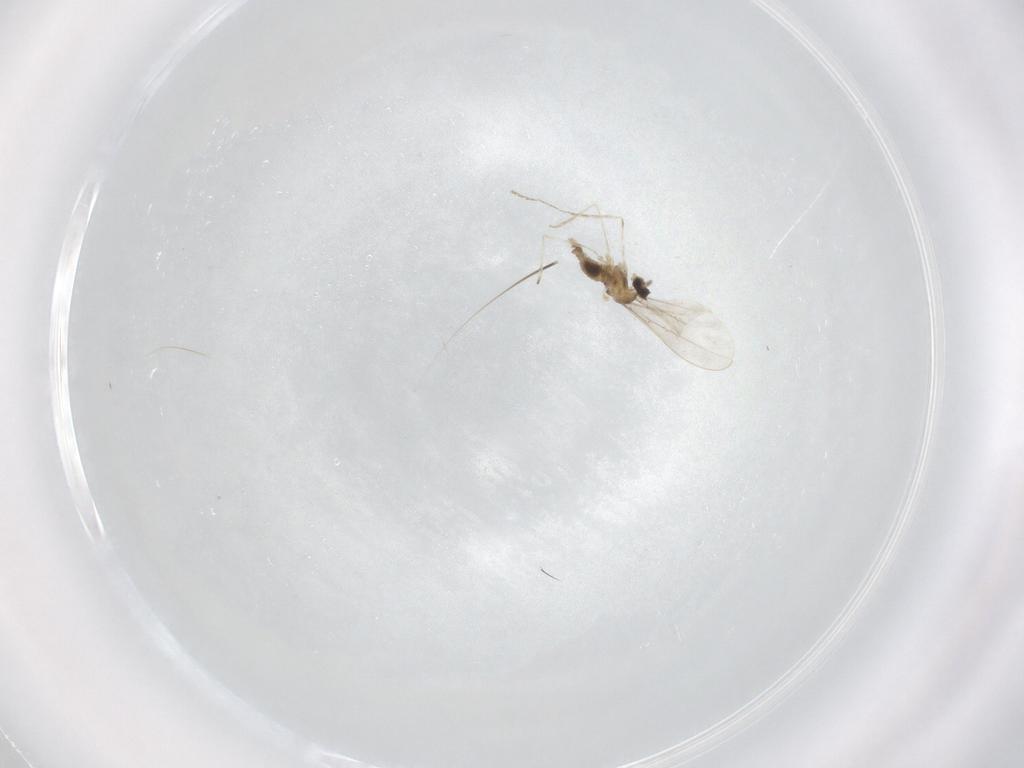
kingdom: Animalia
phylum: Arthropoda
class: Insecta
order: Diptera
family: Cecidomyiidae
